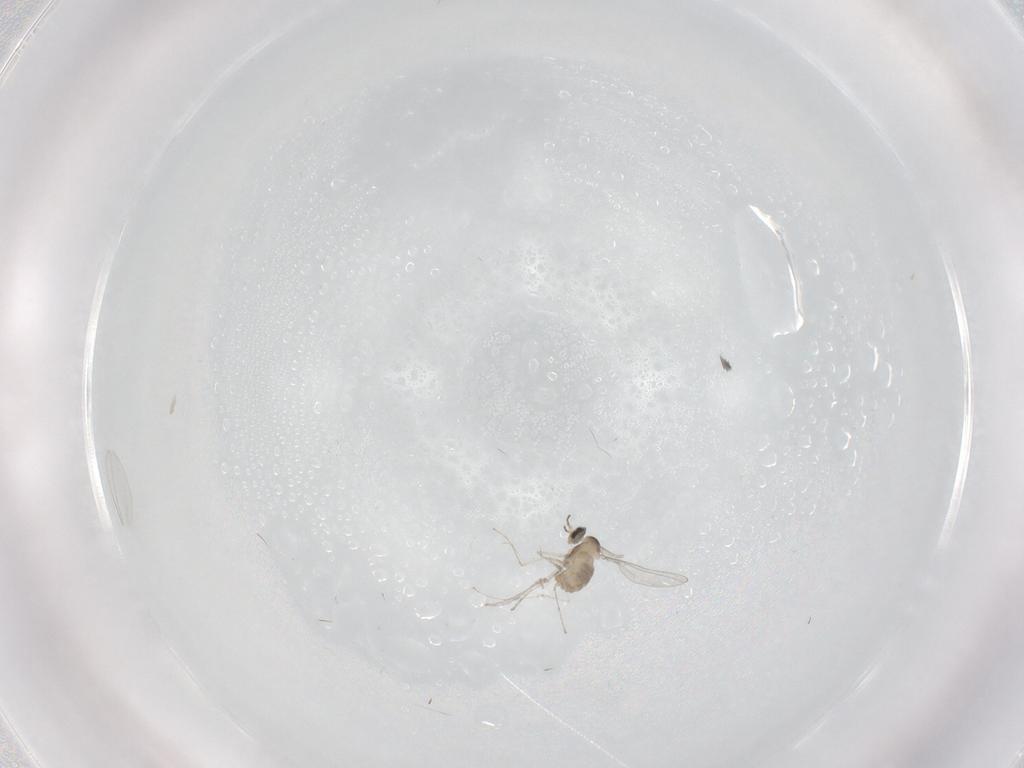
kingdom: Animalia
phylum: Arthropoda
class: Insecta
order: Diptera
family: Cecidomyiidae
